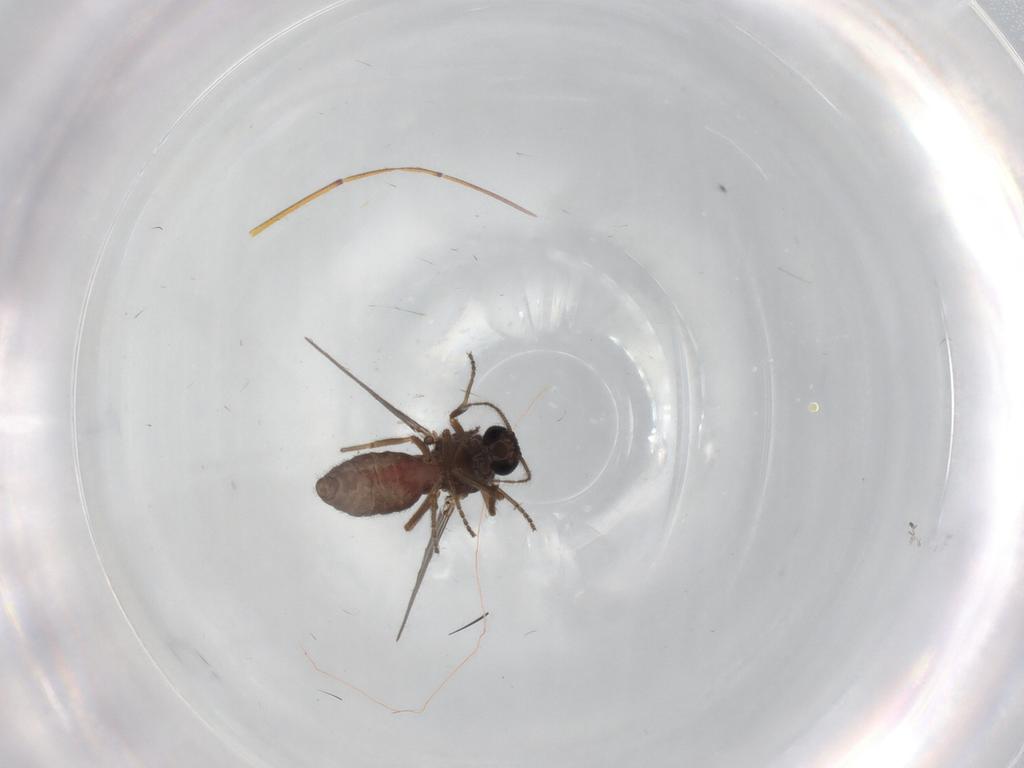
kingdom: Animalia
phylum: Arthropoda
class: Insecta
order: Diptera
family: Ceratopogonidae
